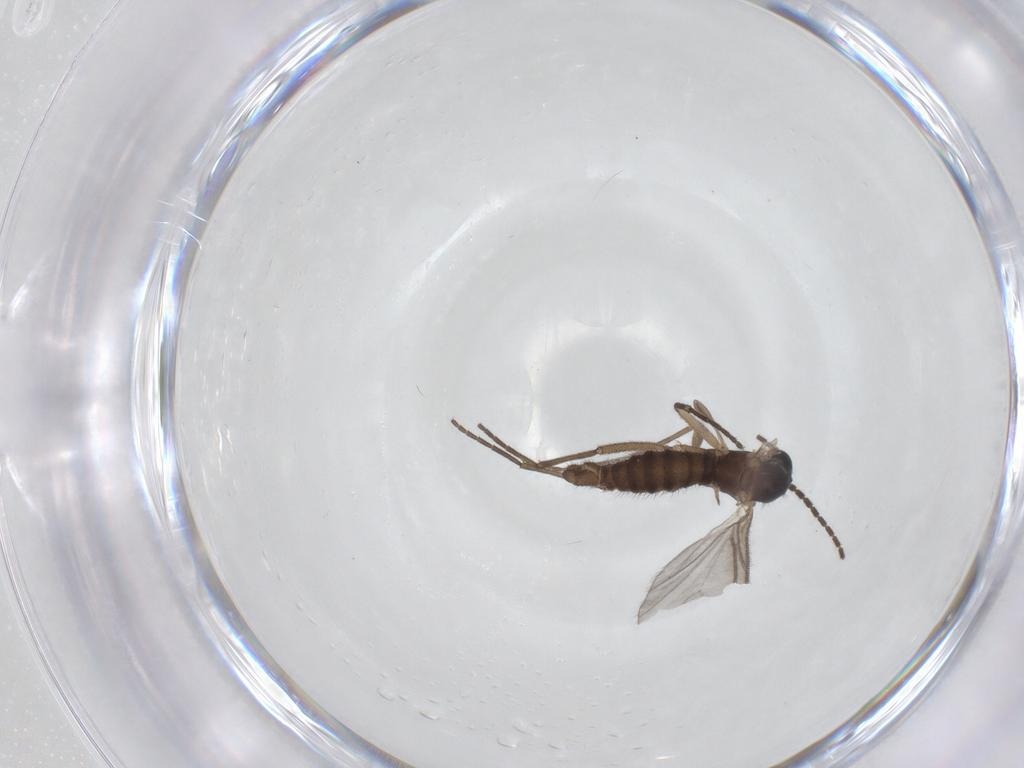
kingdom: Animalia
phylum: Arthropoda
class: Insecta
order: Diptera
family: Sciaridae
